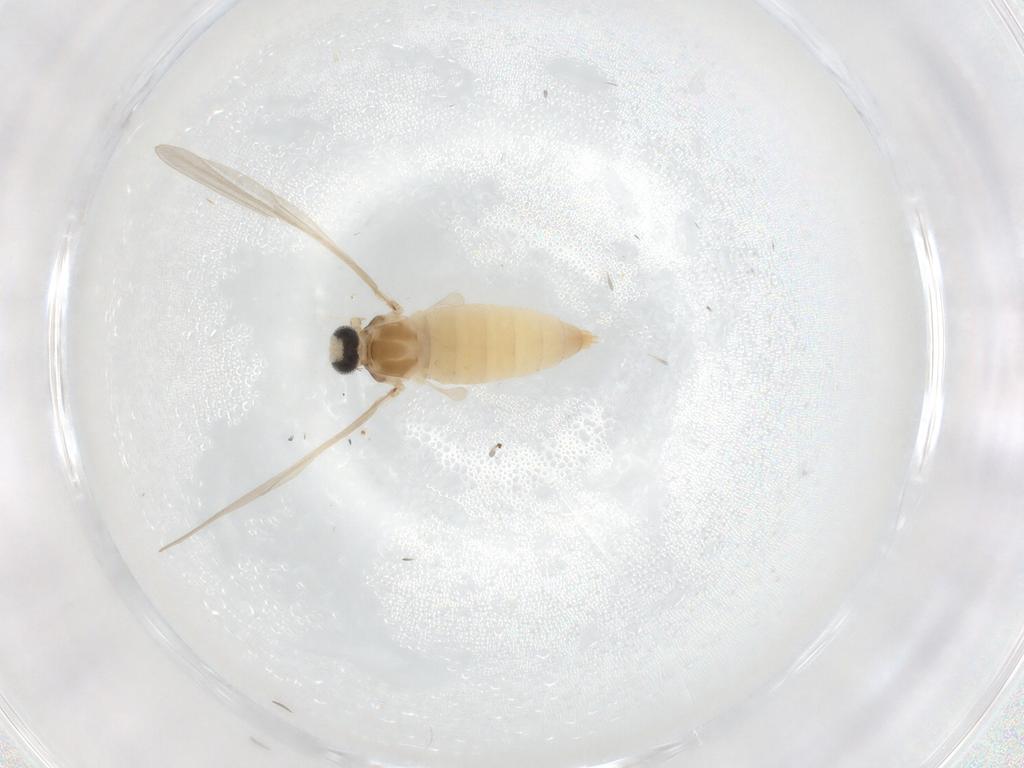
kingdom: Animalia
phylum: Arthropoda
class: Insecta
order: Diptera
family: Cecidomyiidae
